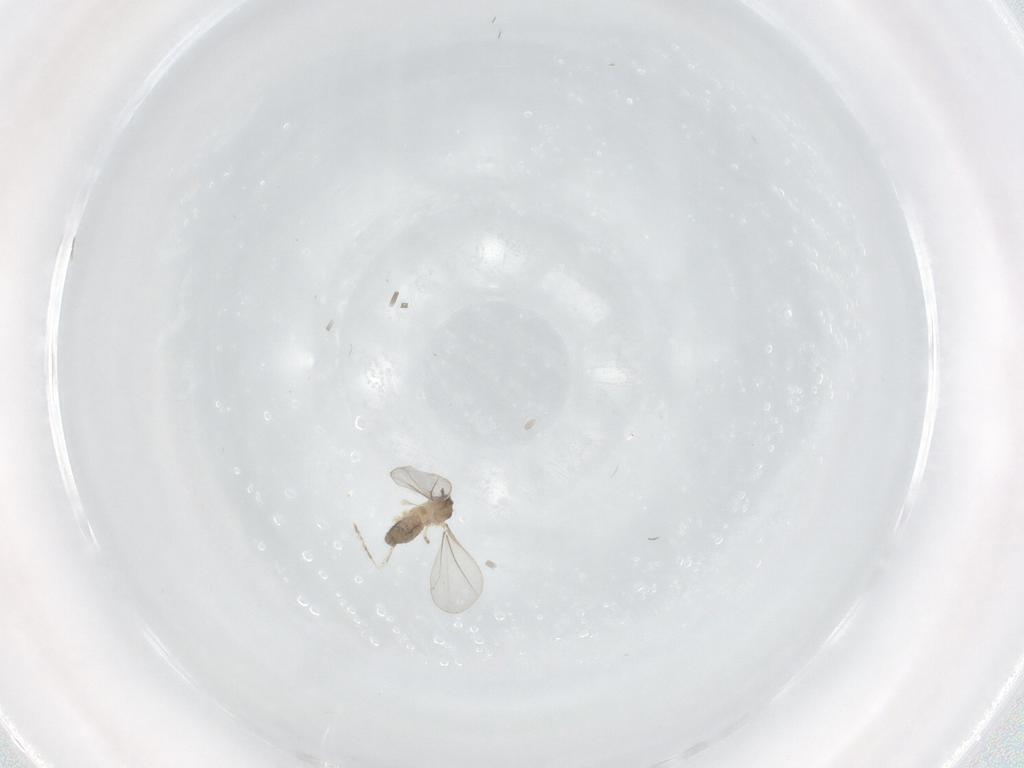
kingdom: Animalia
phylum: Arthropoda
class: Insecta
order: Diptera
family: Cecidomyiidae
